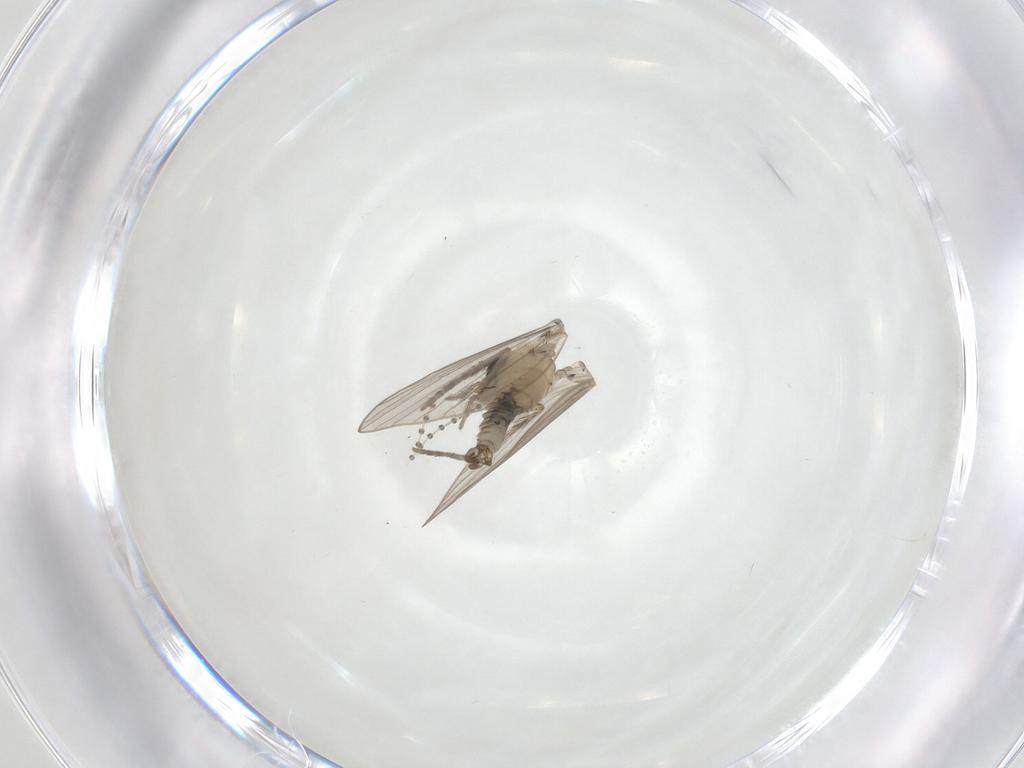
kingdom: Animalia
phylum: Arthropoda
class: Insecta
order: Diptera
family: Psychodidae
